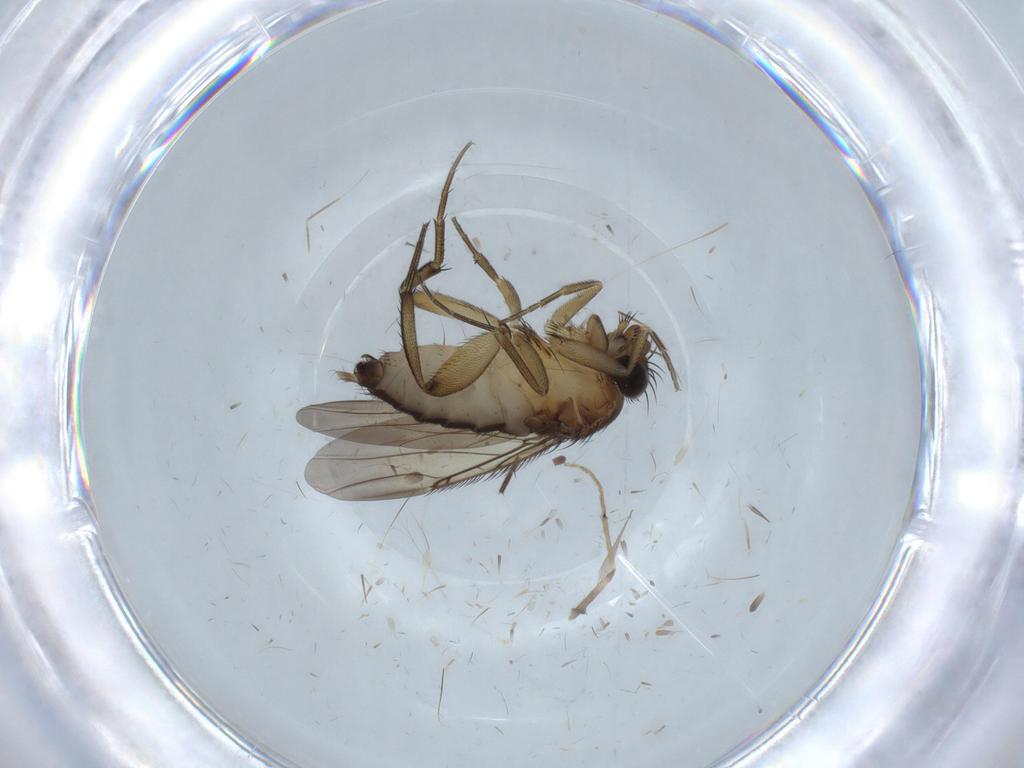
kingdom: Animalia
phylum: Arthropoda
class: Insecta
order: Diptera
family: Phoridae
